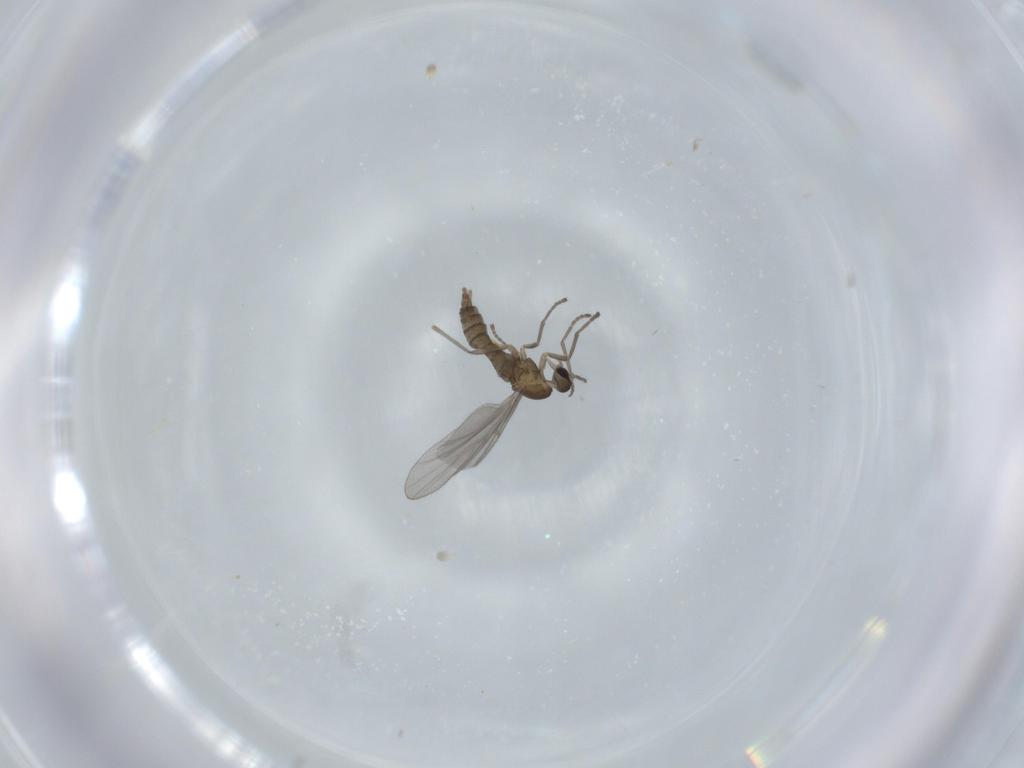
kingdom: Animalia
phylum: Arthropoda
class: Insecta
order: Diptera
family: Cecidomyiidae
